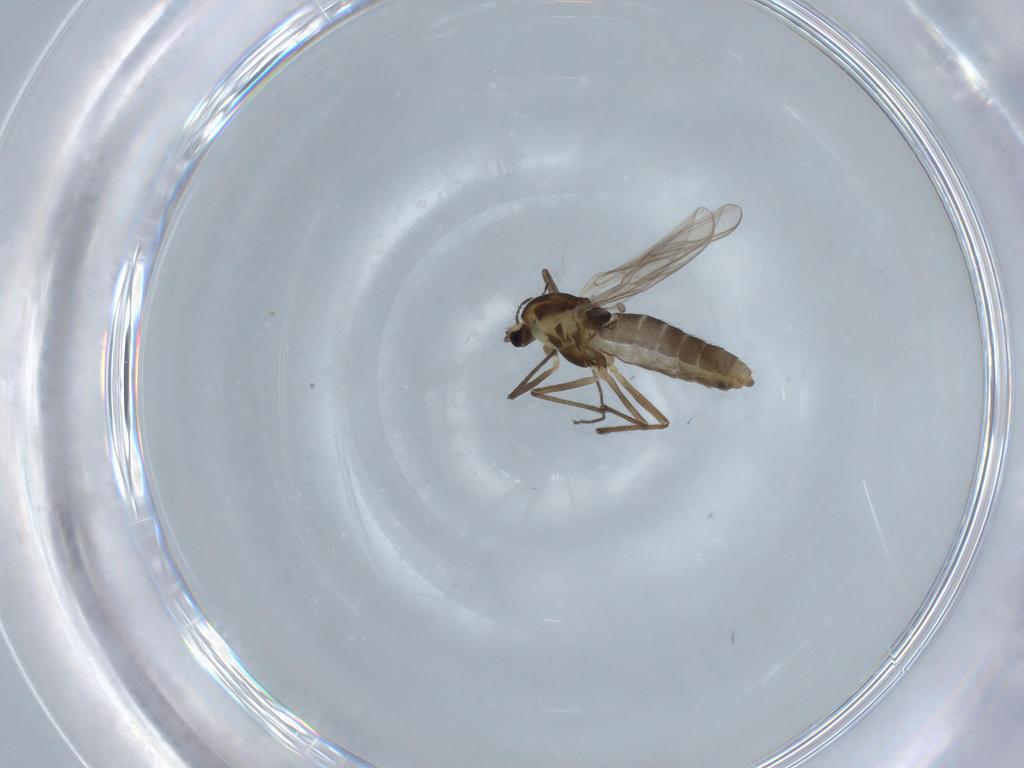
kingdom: Animalia
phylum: Arthropoda
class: Insecta
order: Diptera
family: Chironomidae
